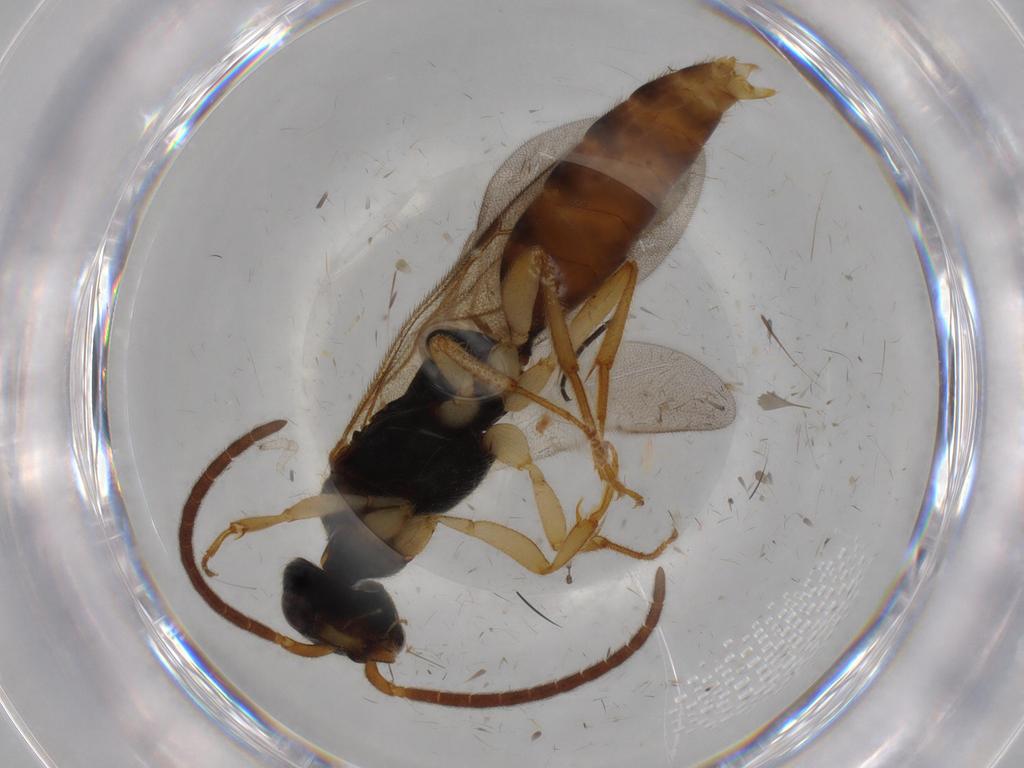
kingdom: Animalia
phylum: Arthropoda
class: Insecta
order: Hymenoptera
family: Bethylidae
